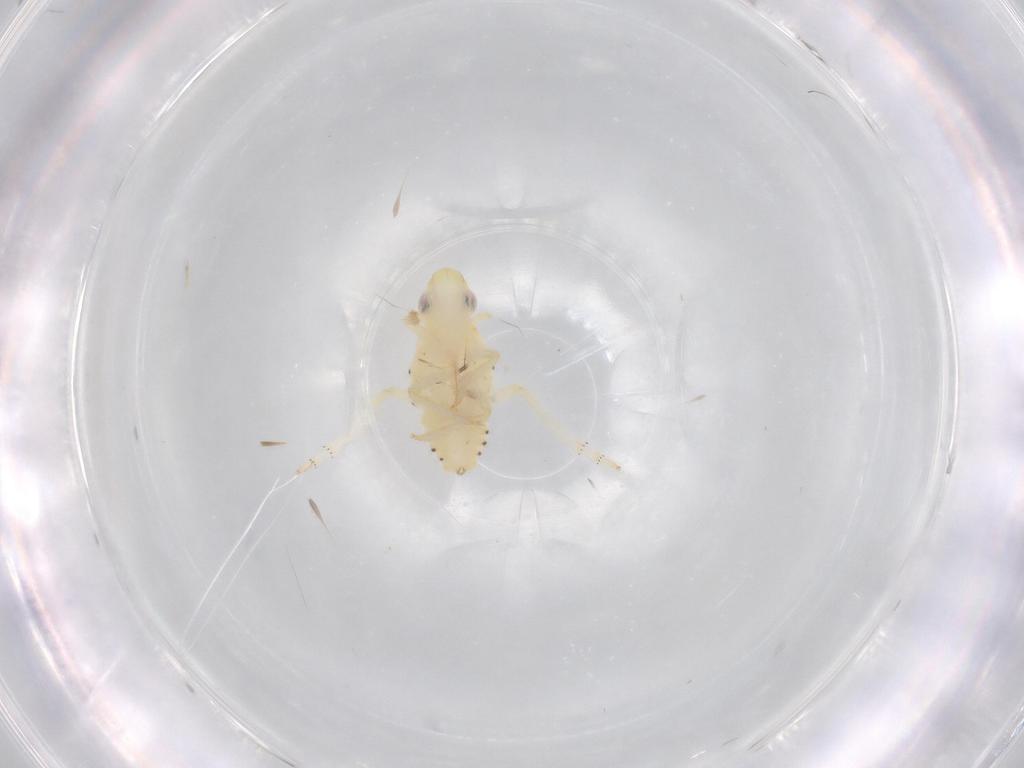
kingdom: Animalia
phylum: Arthropoda
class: Insecta
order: Hemiptera
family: Tropiduchidae
